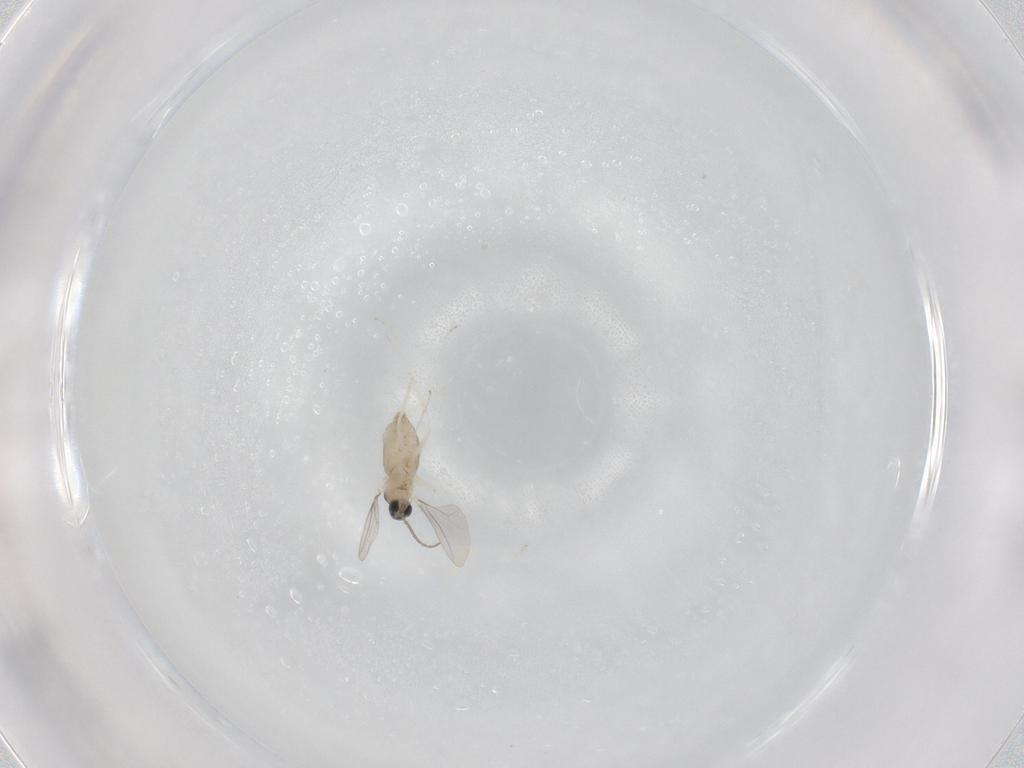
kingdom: Animalia
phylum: Arthropoda
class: Insecta
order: Diptera
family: Cecidomyiidae
